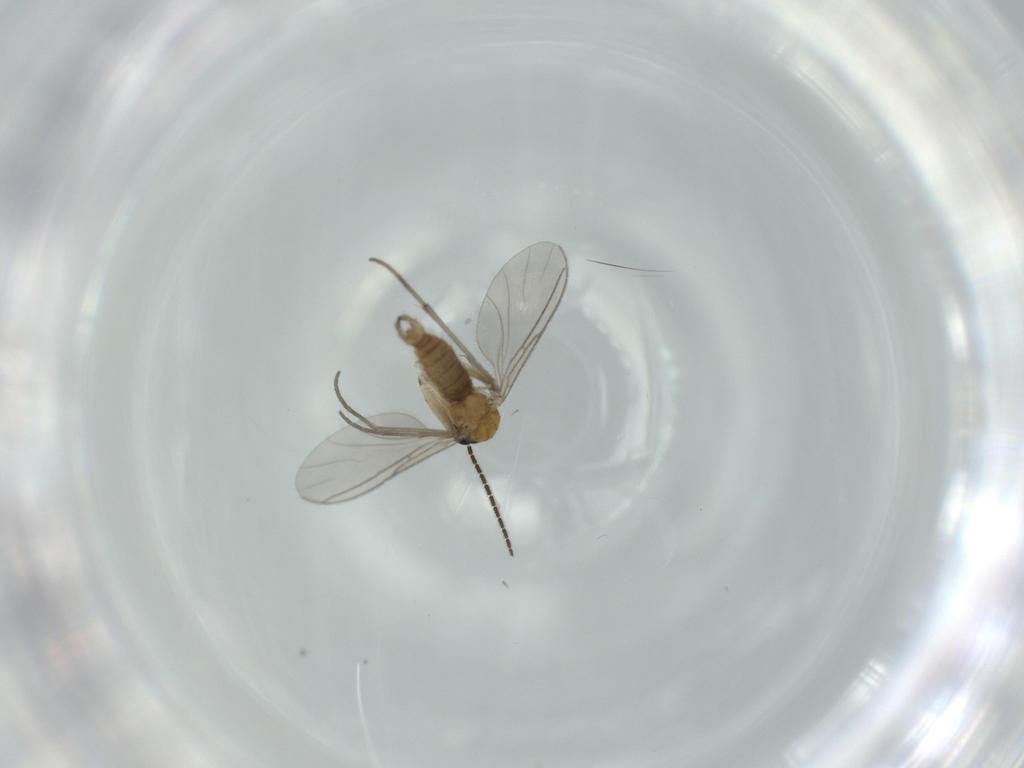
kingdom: Animalia
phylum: Arthropoda
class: Insecta
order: Diptera
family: Sciaridae
